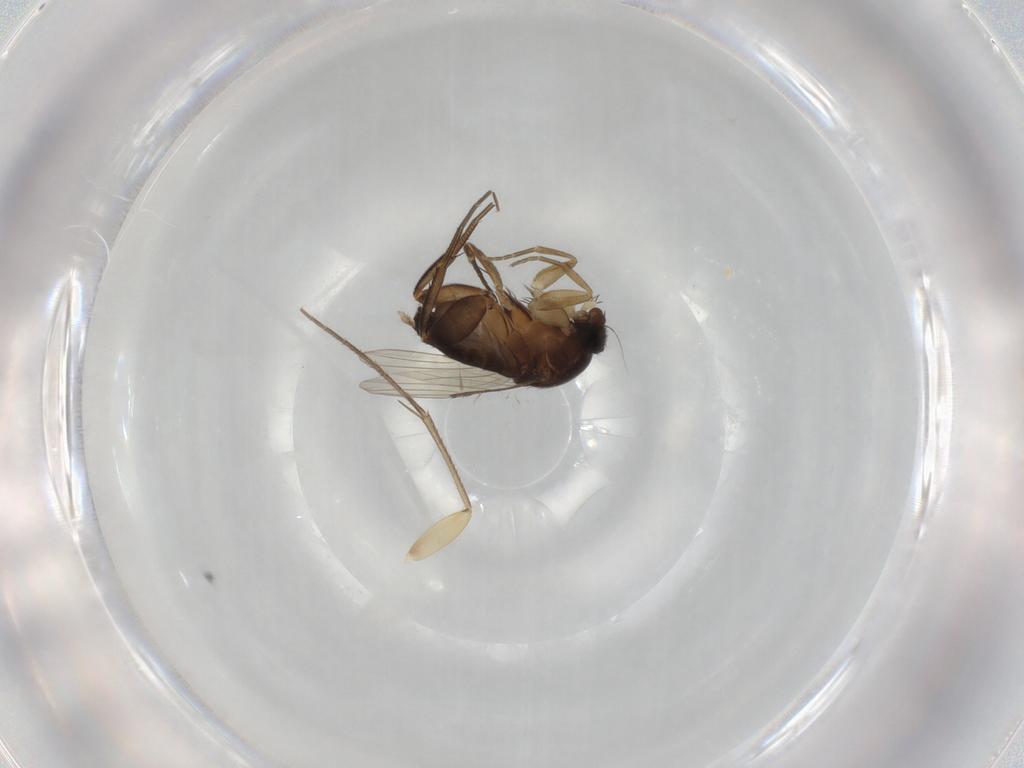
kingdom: Animalia
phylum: Arthropoda
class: Insecta
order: Diptera
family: Phoridae
